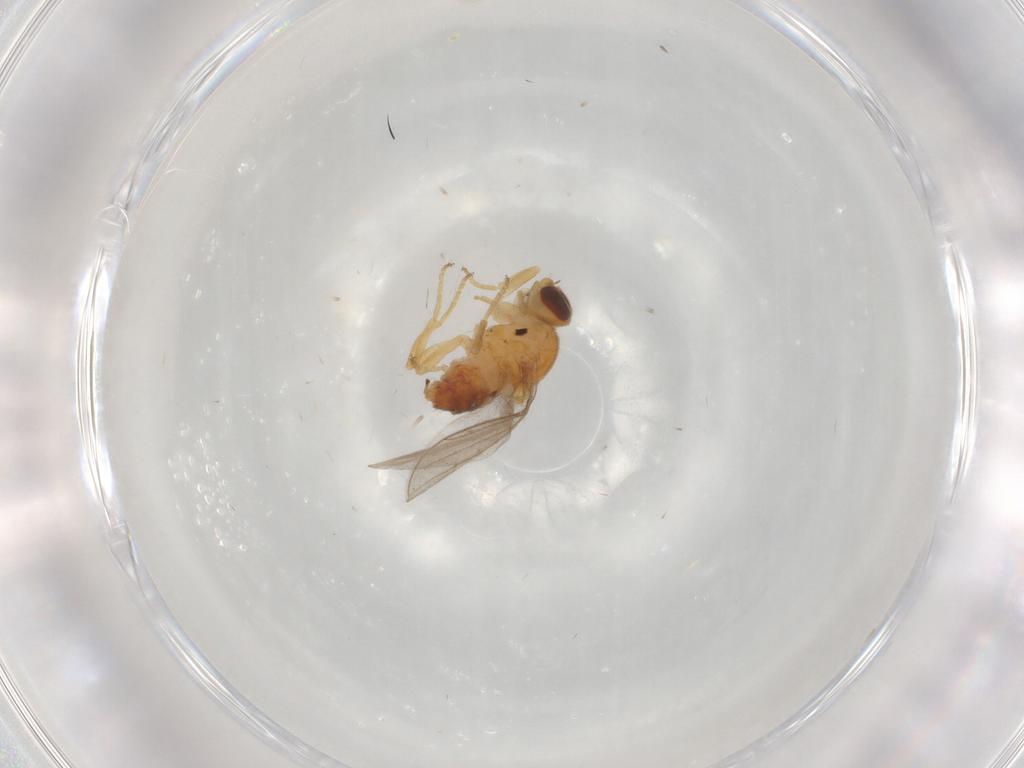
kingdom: Animalia
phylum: Arthropoda
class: Insecta
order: Diptera
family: Chloropidae
